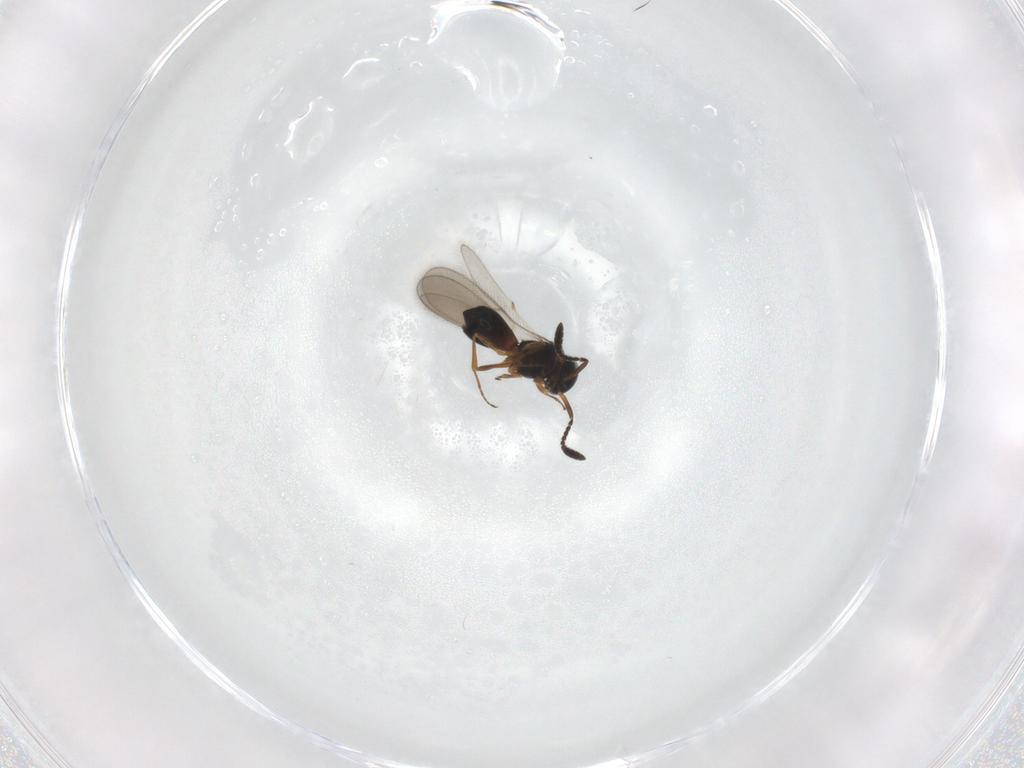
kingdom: Animalia
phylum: Arthropoda
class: Insecta
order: Hymenoptera
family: Scelionidae
